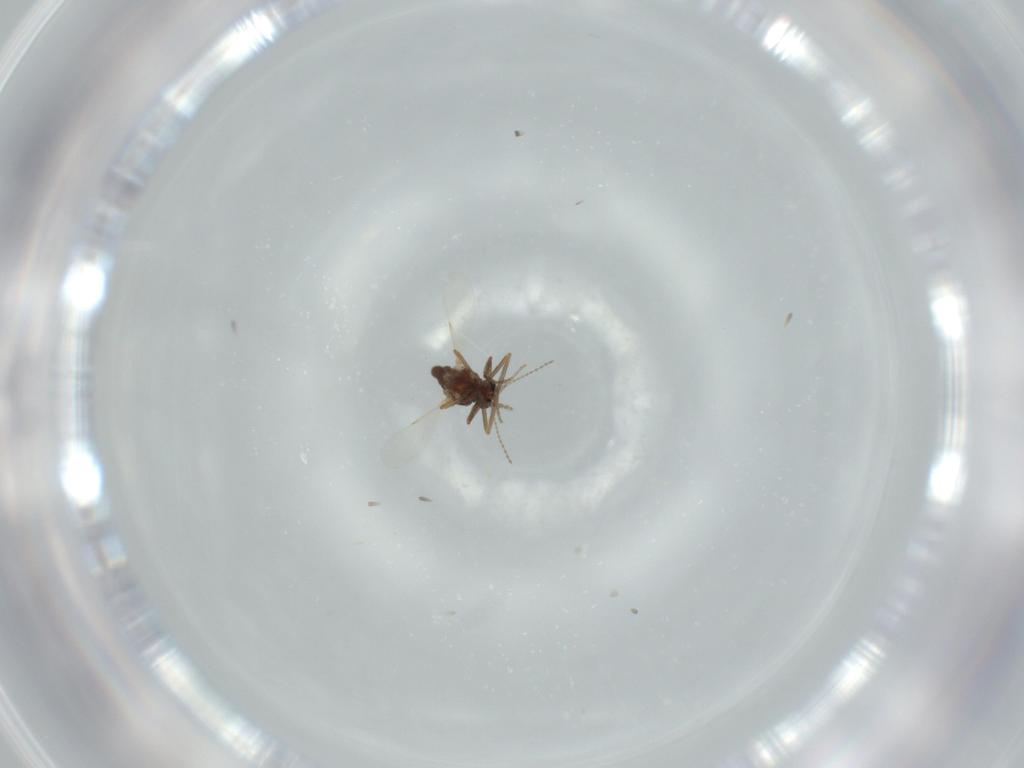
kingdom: Animalia
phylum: Arthropoda
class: Insecta
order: Diptera
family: Ceratopogonidae
